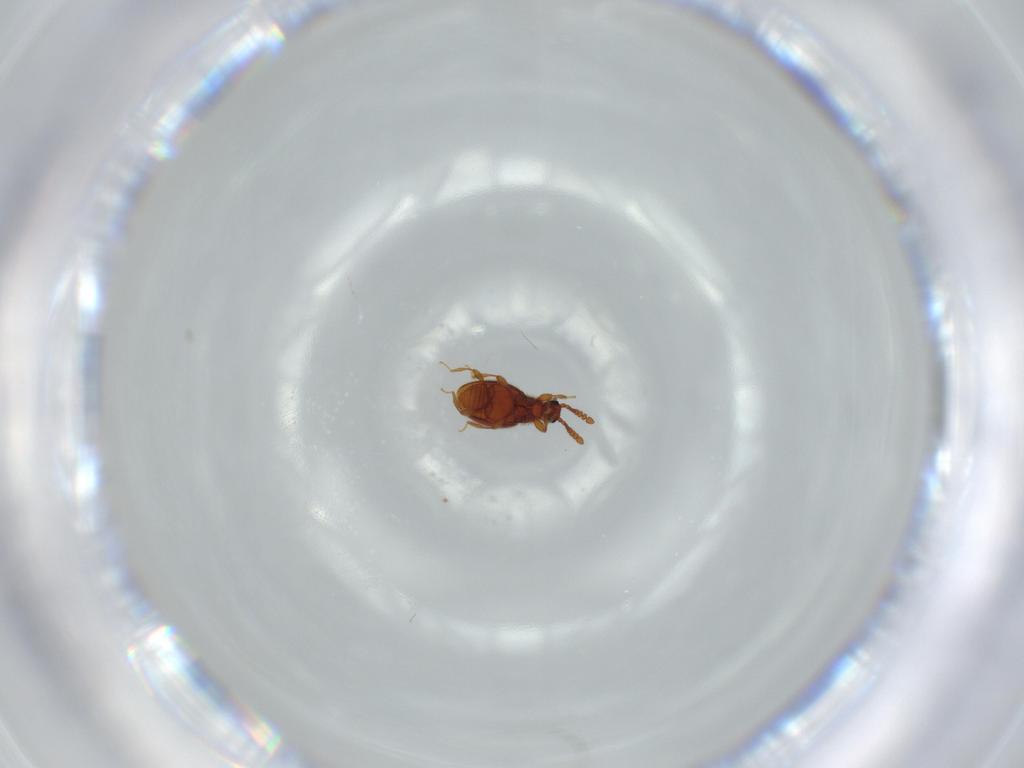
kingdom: Animalia
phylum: Arthropoda
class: Insecta
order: Coleoptera
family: Staphylinidae
